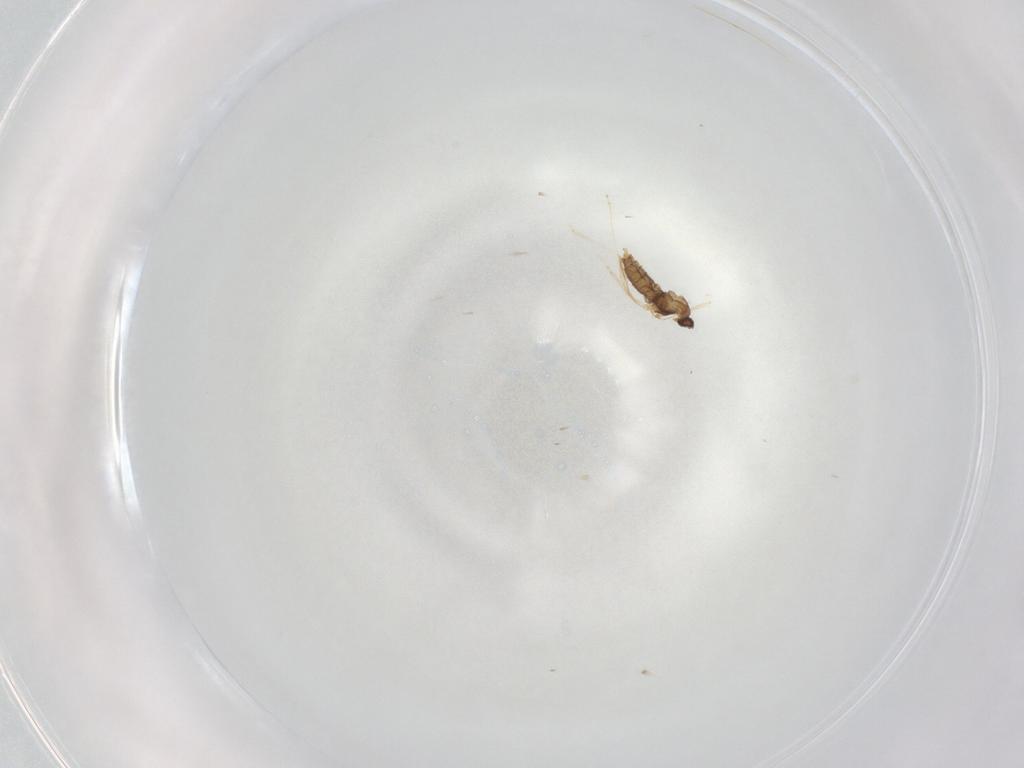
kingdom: Animalia
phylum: Arthropoda
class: Insecta
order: Diptera
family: Cecidomyiidae
